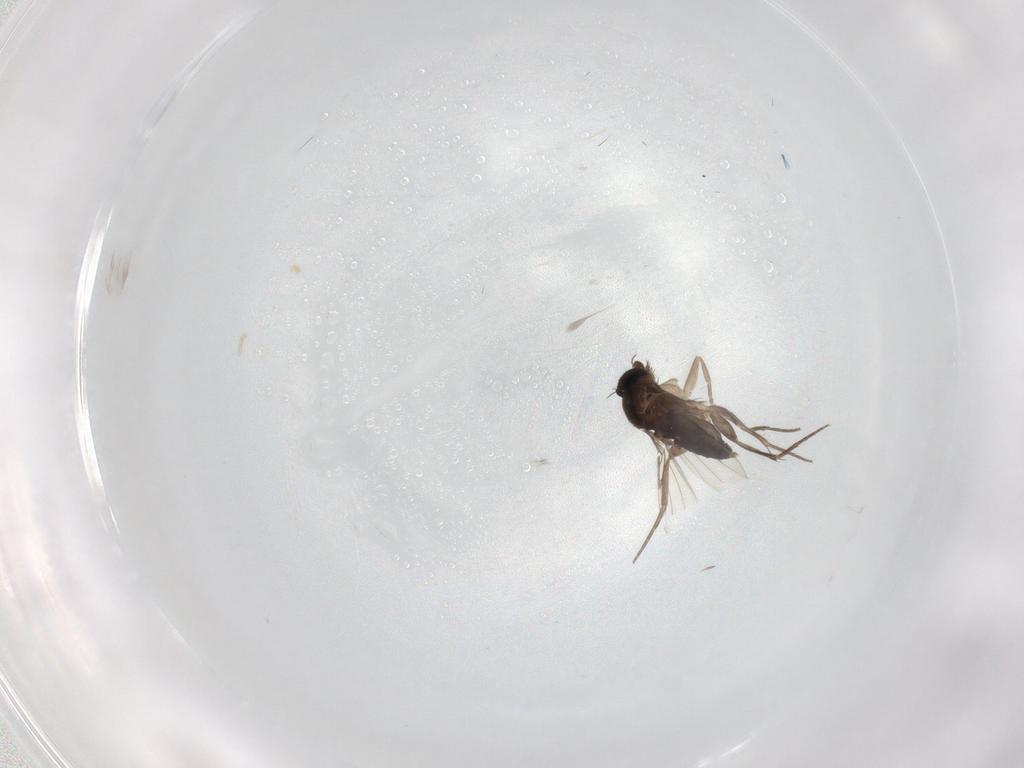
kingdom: Animalia
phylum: Arthropoda
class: Insecta
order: Diptera
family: Phoridae
